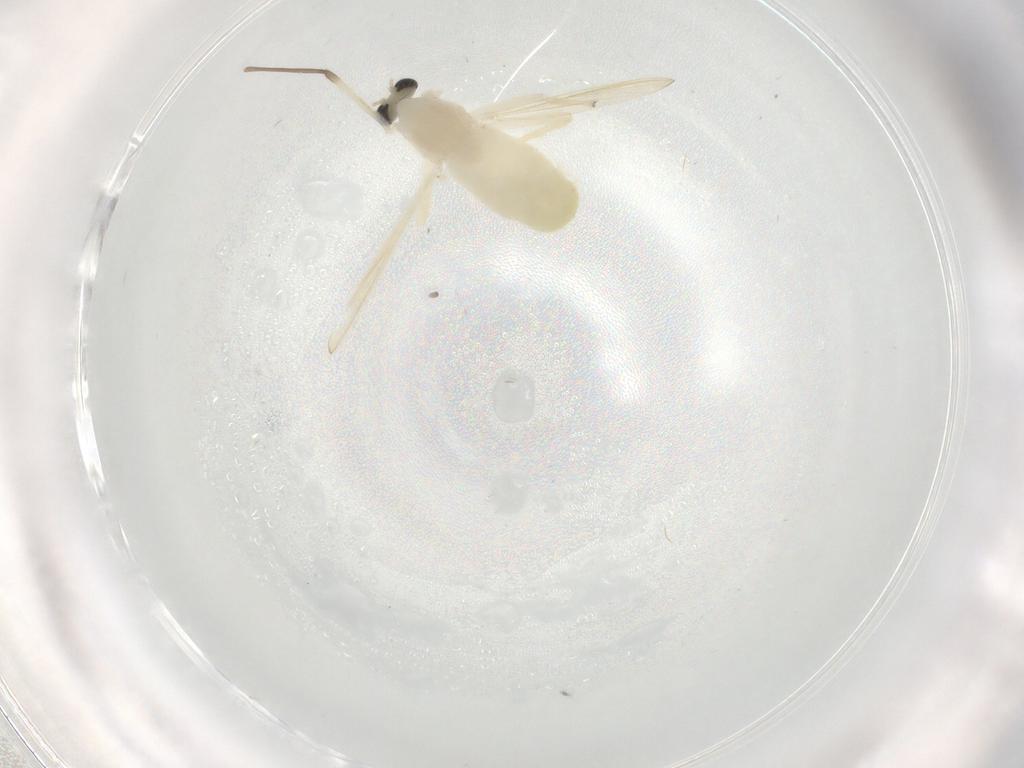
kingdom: Animalia
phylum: Arthropoda
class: Insecta
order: Diptera
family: Chironomidae
